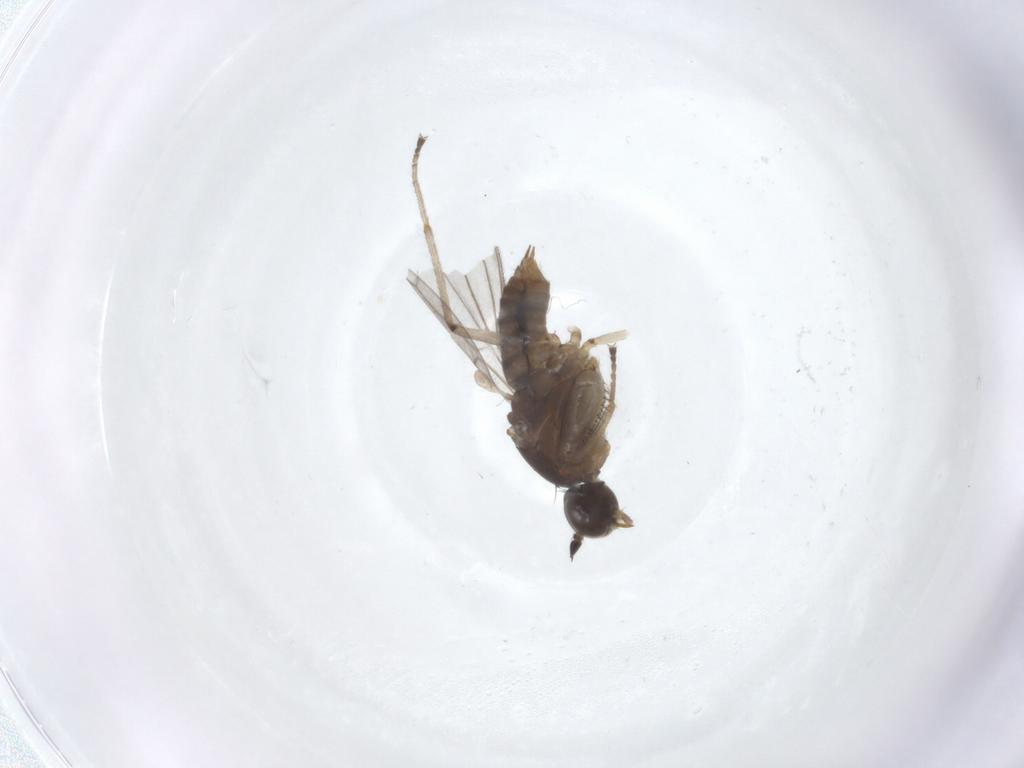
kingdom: Animalia
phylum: Arthropoda
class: Insecta
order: Diptera
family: Empididae
